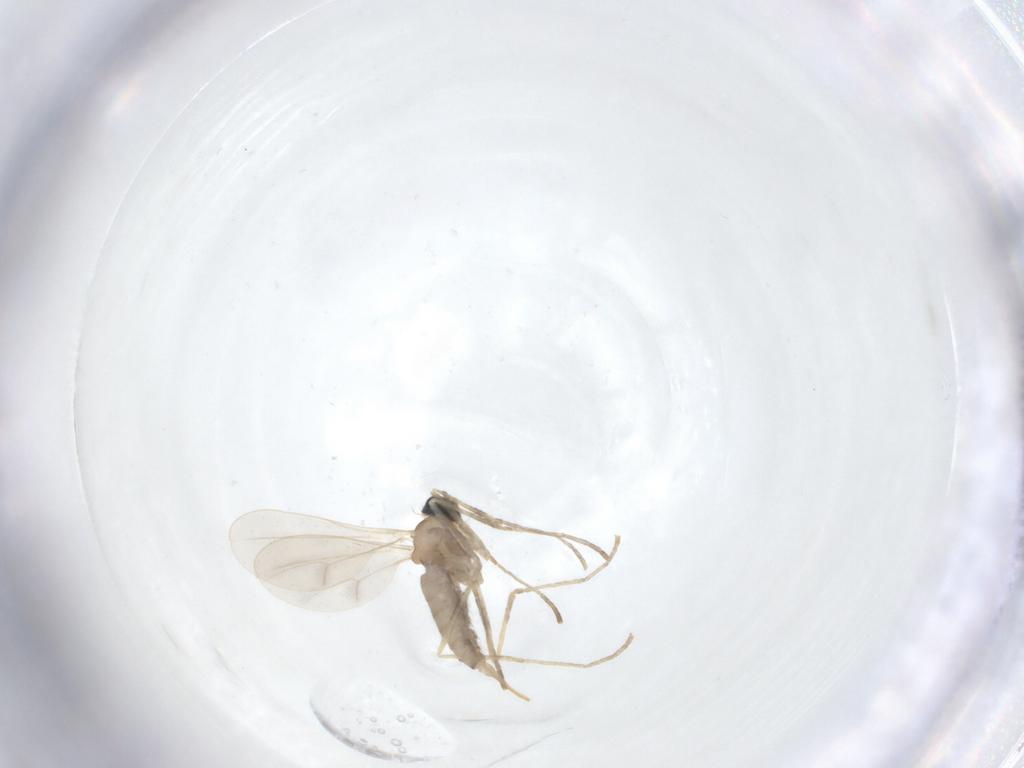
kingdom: Animalia
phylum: Arthropoda
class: Insecta
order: Diptera
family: Cecidomyiidae
